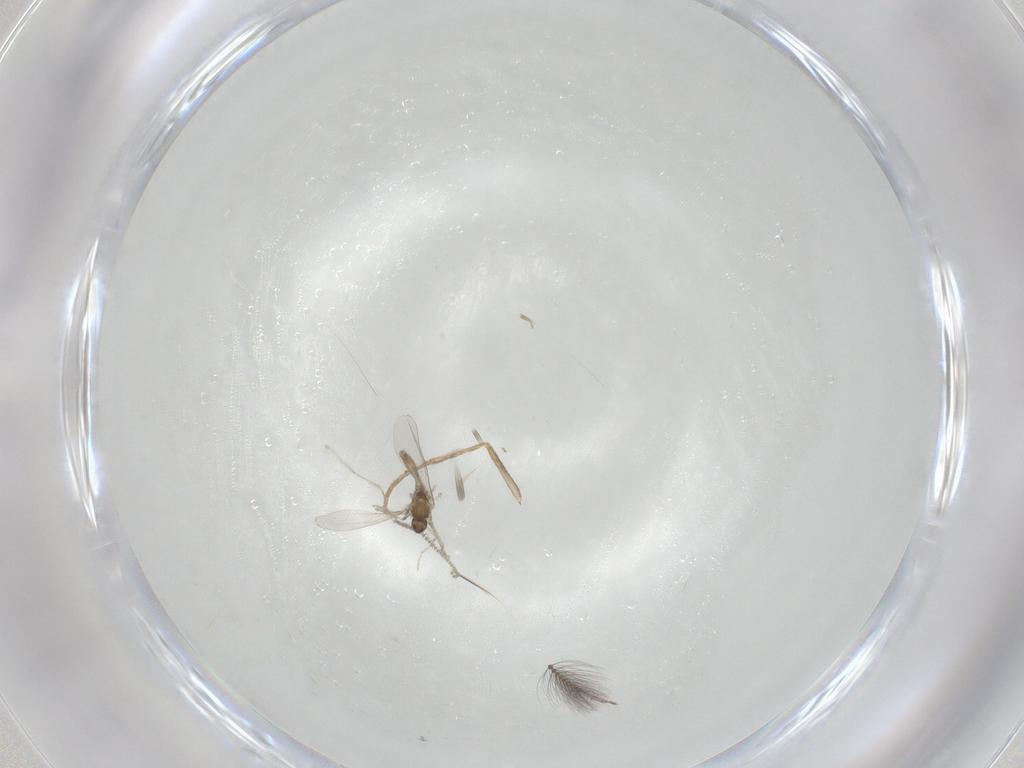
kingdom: Animalia
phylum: Arthropoda
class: Insecta
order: Diptera
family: Cecidomyiidae
